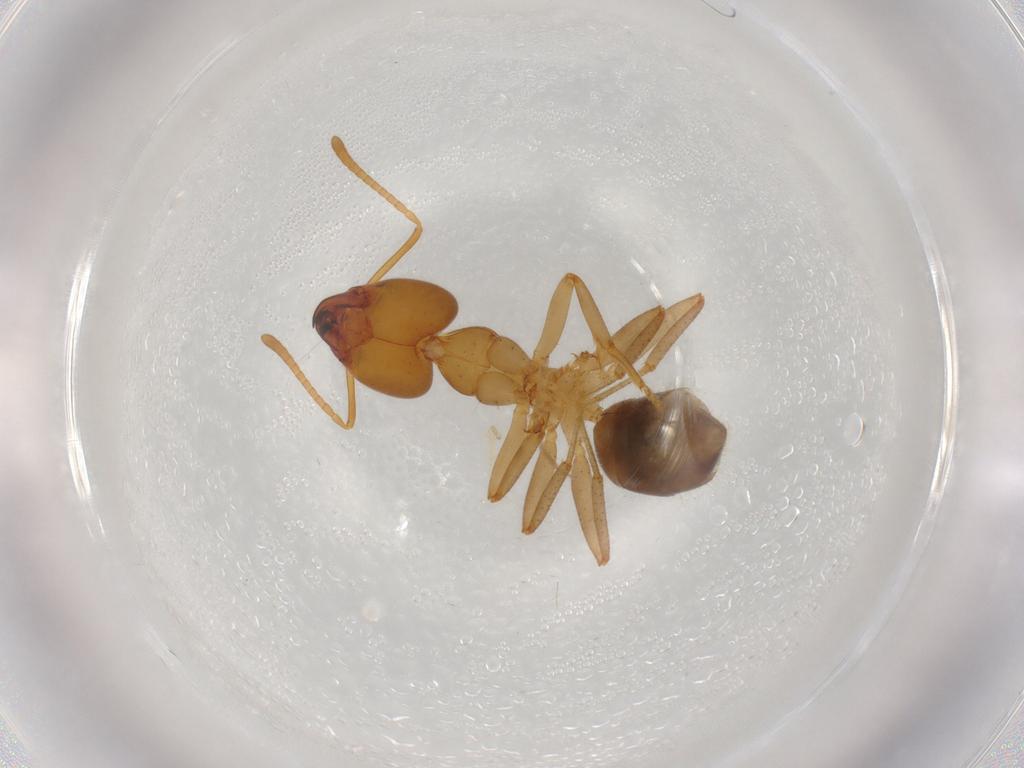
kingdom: Animalia
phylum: Arthropoda
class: Insecta
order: Hymenoptera
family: Formicidae
